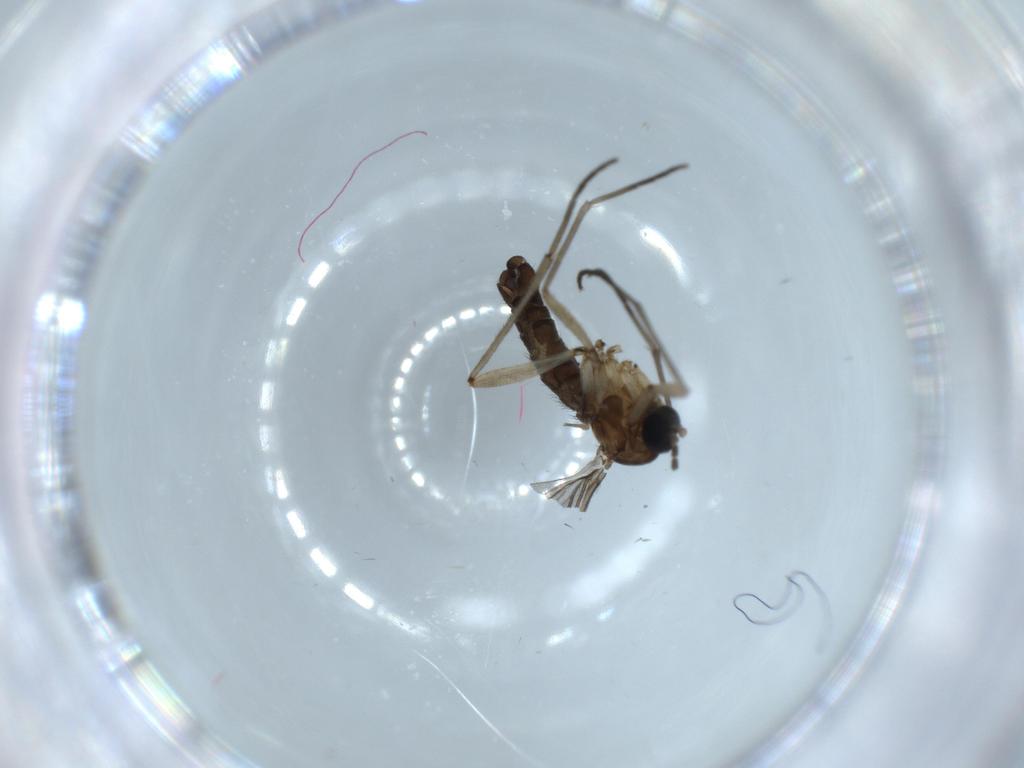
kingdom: Animalia
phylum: Arthropoda
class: Insecta
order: Diptera
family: Sciaridae
